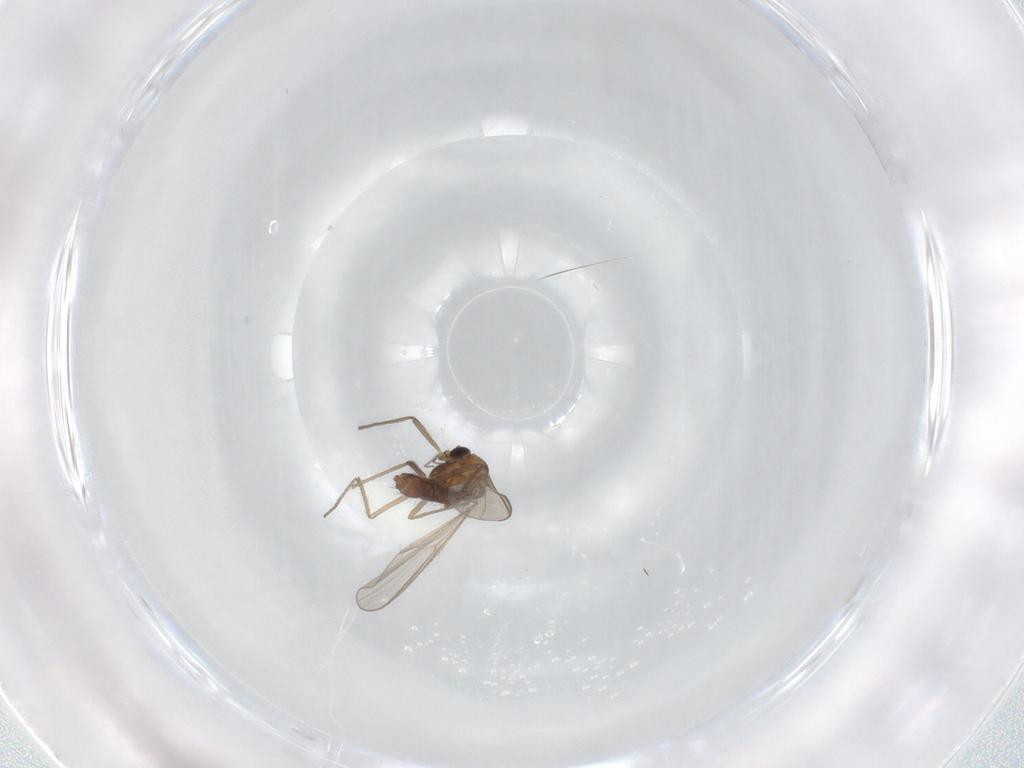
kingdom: Animalia
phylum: Arthropoda
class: Insecta
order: Diptera
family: Chironomidae
